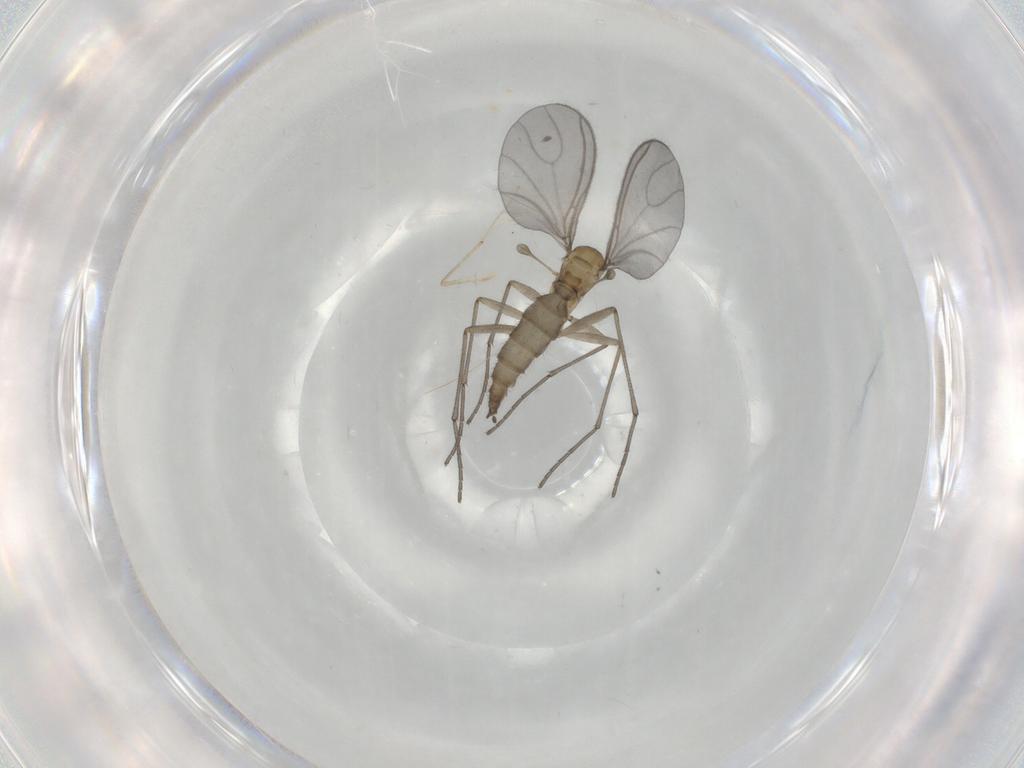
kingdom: Animalia
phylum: Arthropoda
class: Insecta
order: Diptera
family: Sciaridae
